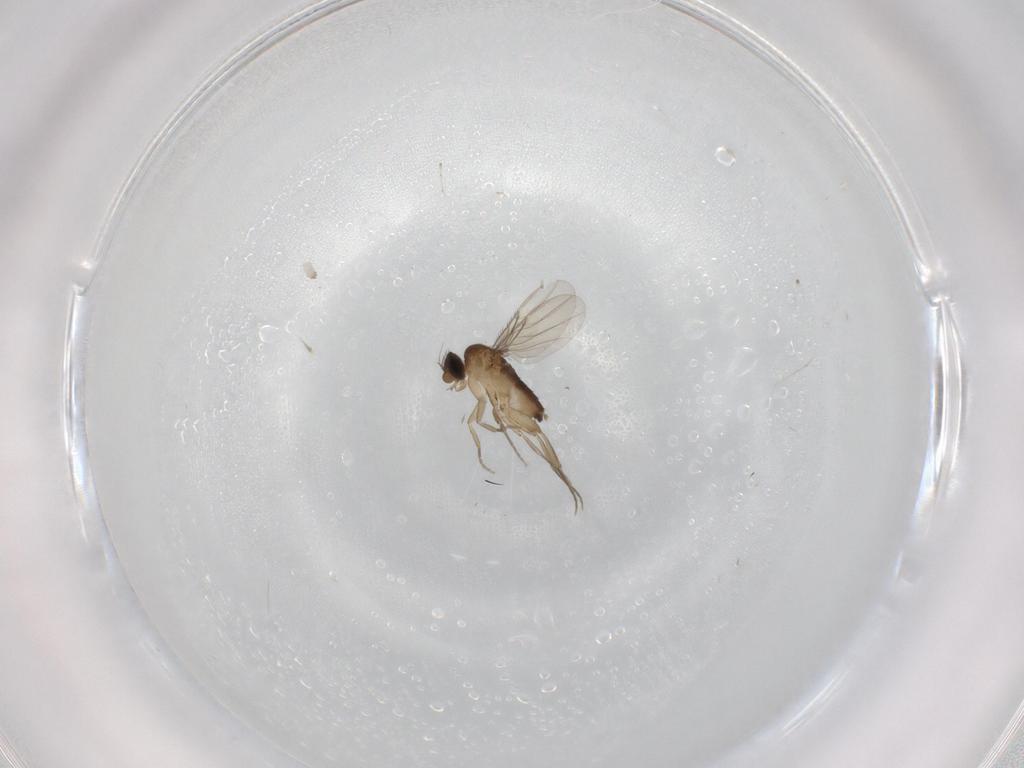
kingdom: Animalia
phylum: Arthropoda
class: Insecta
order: Diptera
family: Phoridae
